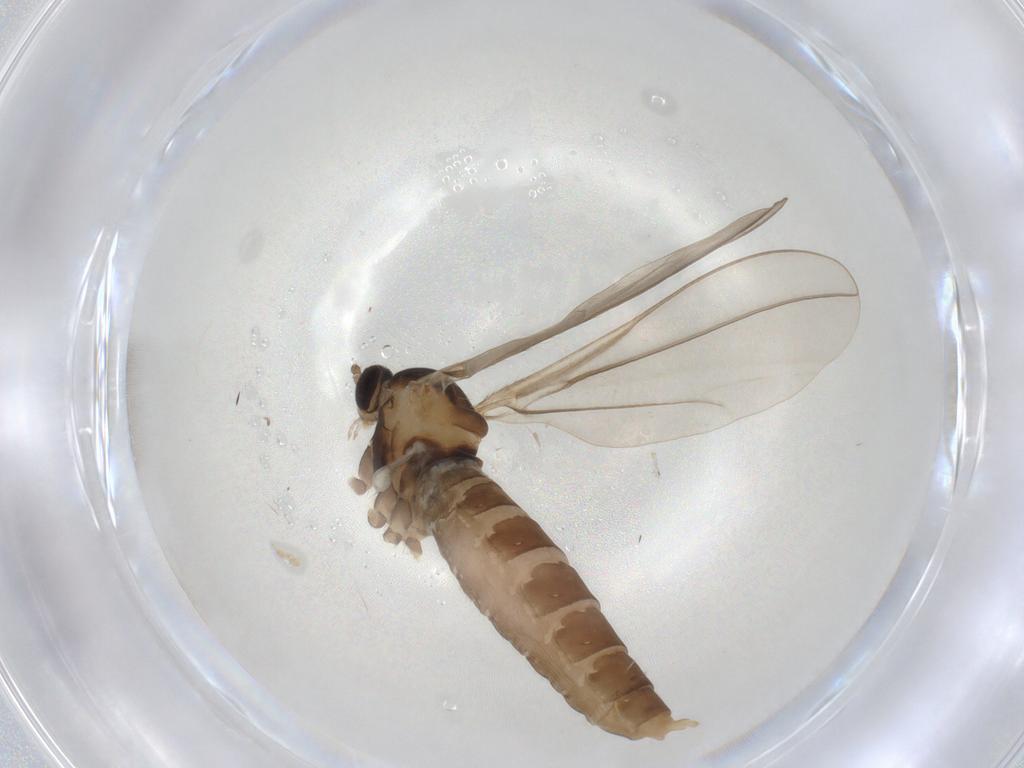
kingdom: Animalia
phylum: Arthropoda
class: Insecta
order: Diptera
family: Cecidomyiidae
